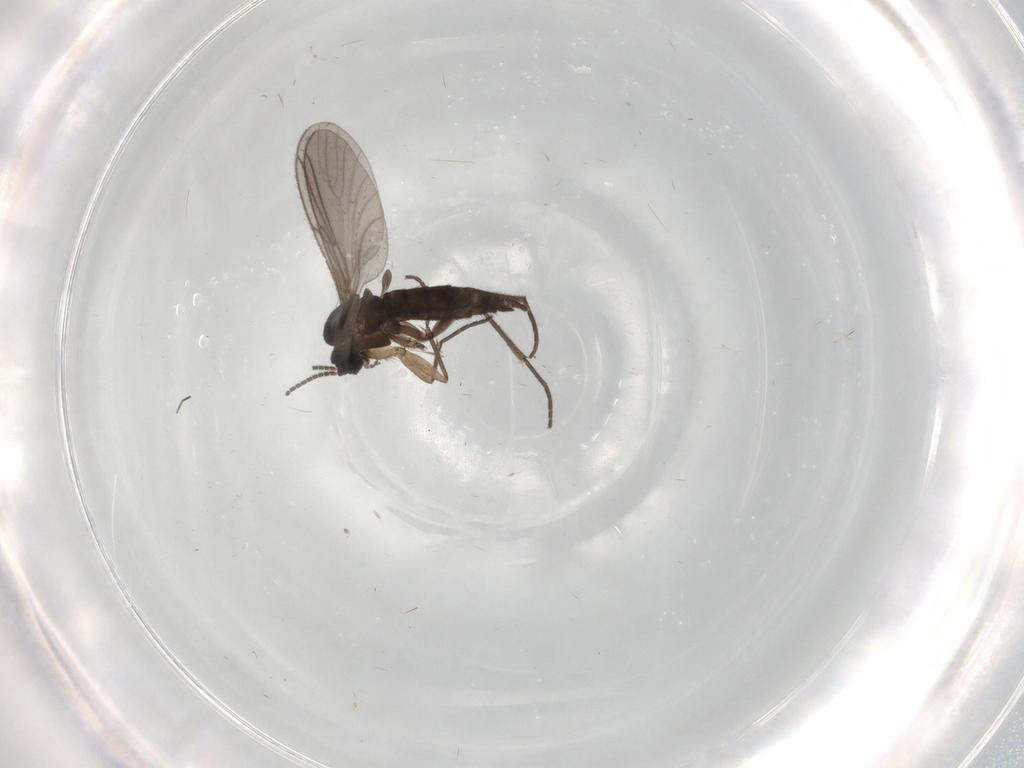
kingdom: Animalia
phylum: Arthropoda
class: Insecta
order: Diptera
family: Sciaridae
